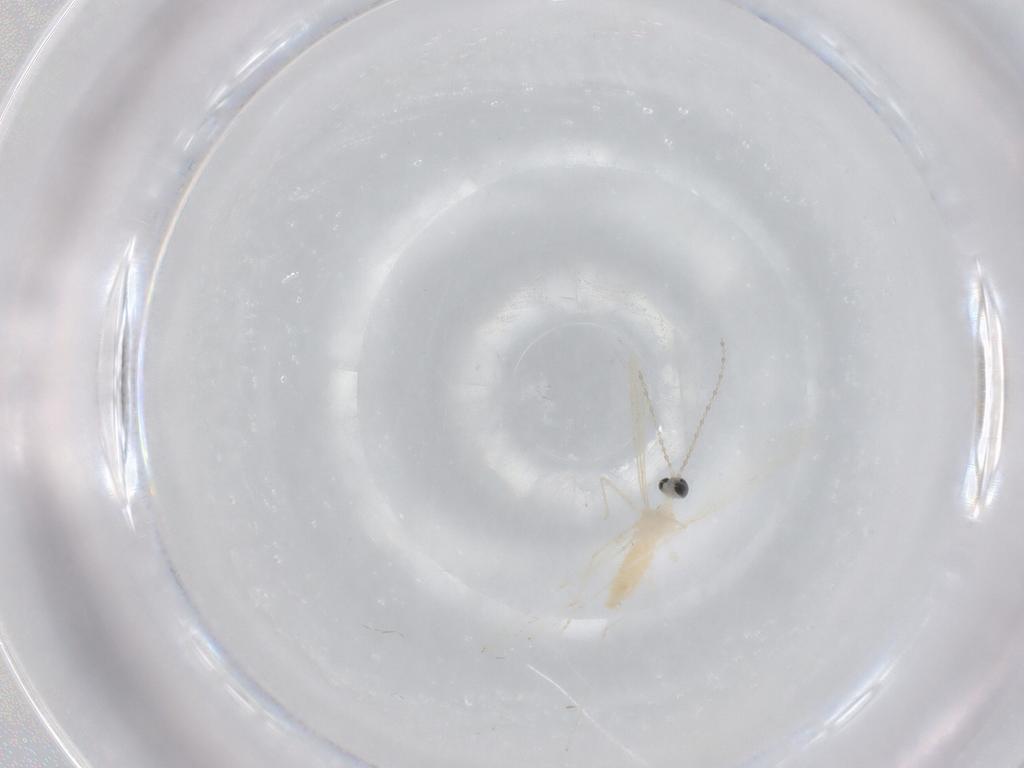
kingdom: Animalia
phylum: Arthropoda
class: Insecta
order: Diptera
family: Cecidomyiidae
